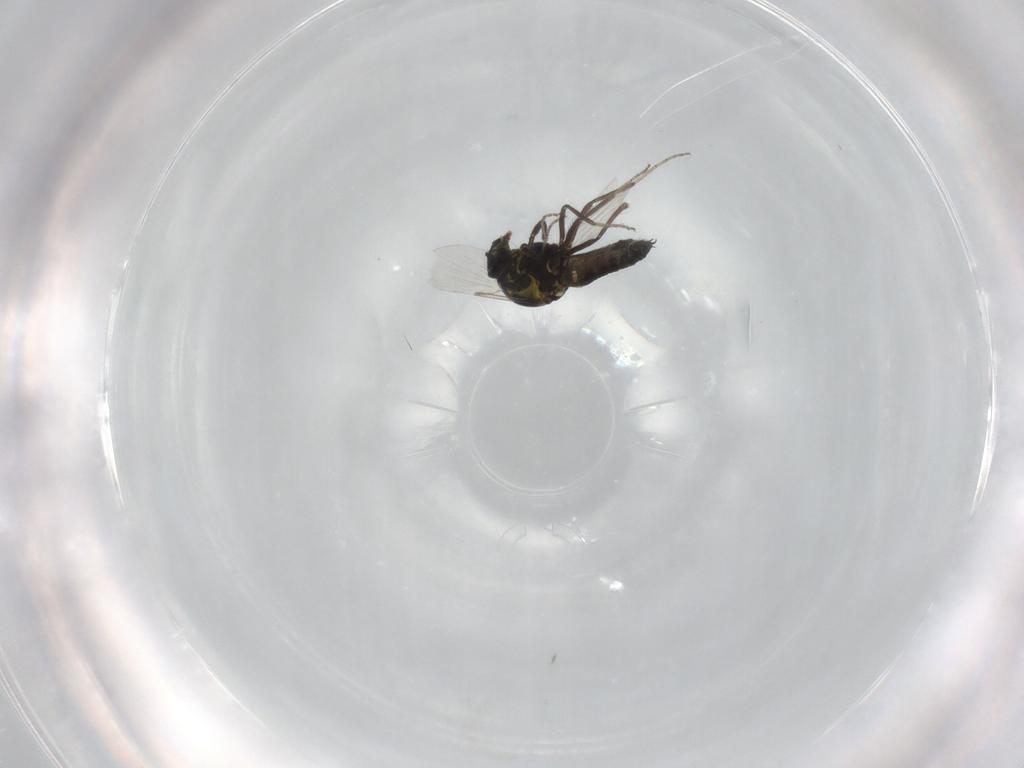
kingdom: Animalia
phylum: Arthropoda
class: Insecta
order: Diptera
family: Ceratopogonidae
